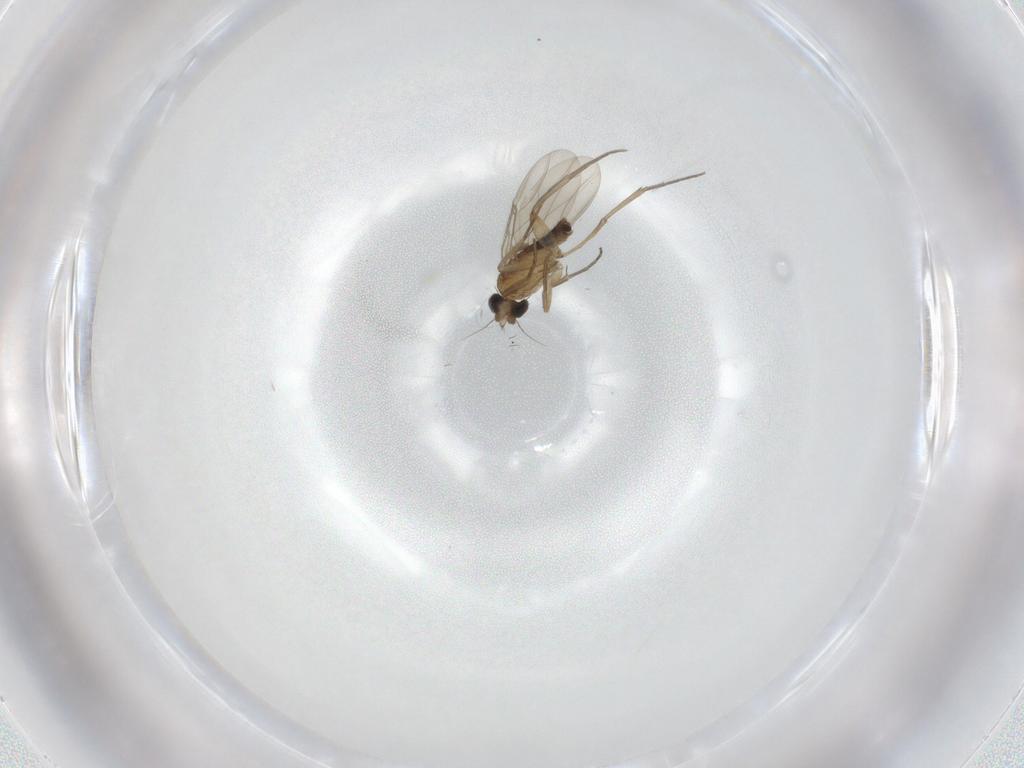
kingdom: Animalia
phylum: Arthropoda
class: Insecta
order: Diptera
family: Phoridae
